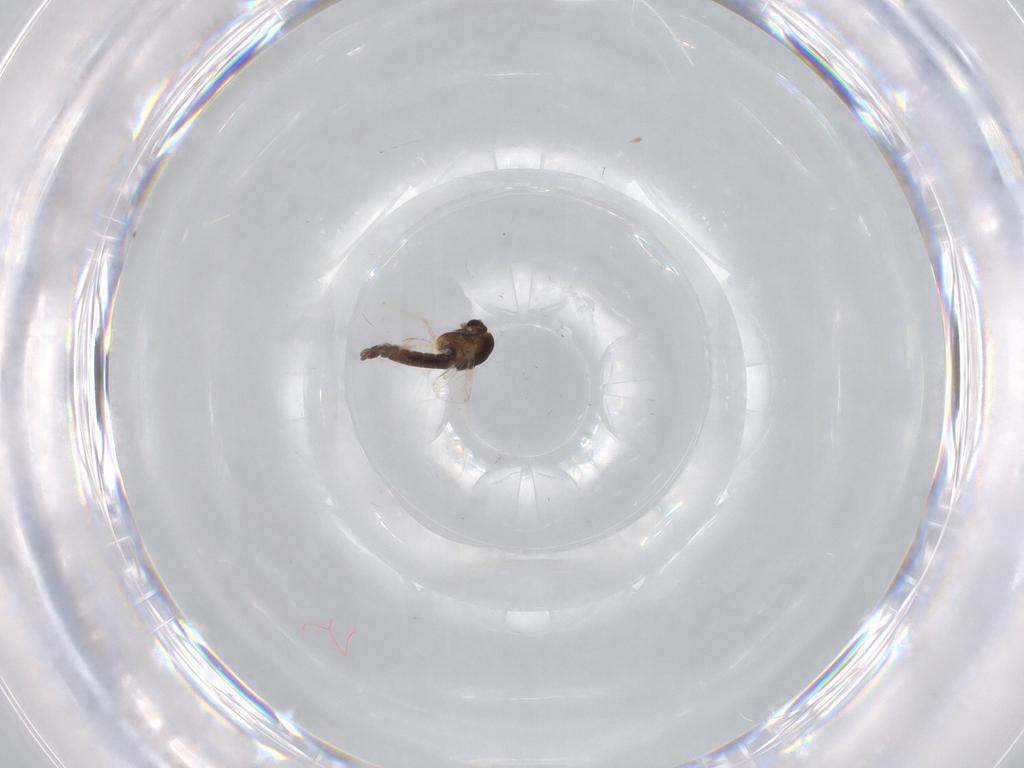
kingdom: Animalia
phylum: Arthropoda
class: Insecta
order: Diptera
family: Chironomidae
